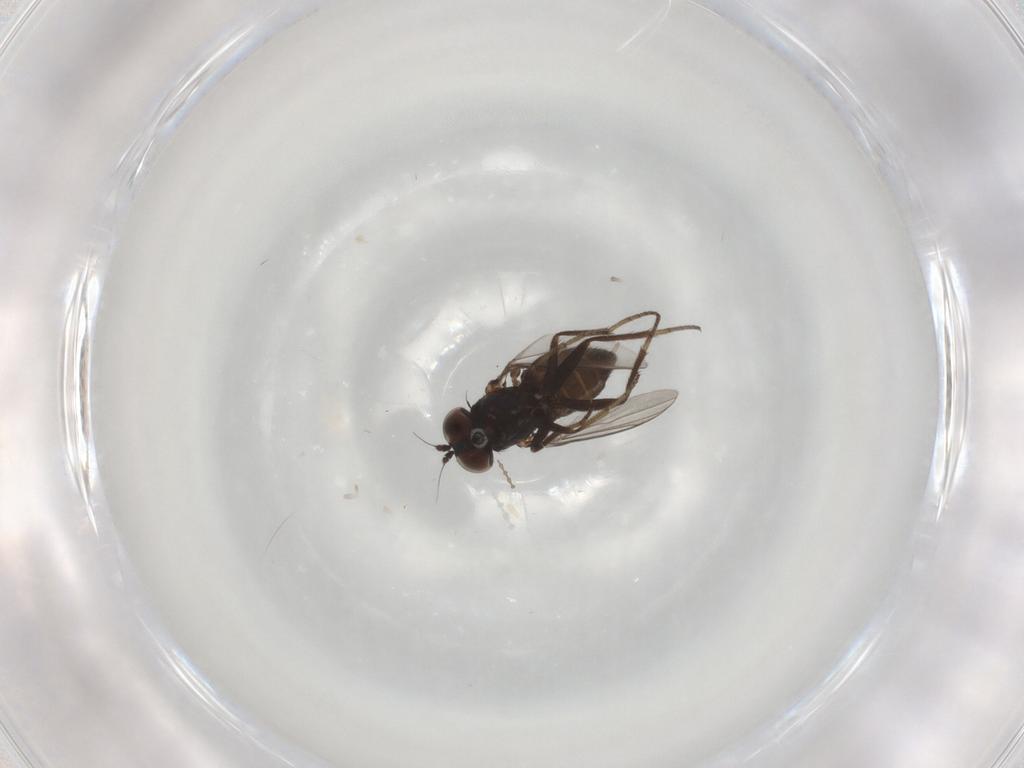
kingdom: Animalia
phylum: Arthropoda
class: Insecta
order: Diptera
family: Dolichopodidae
